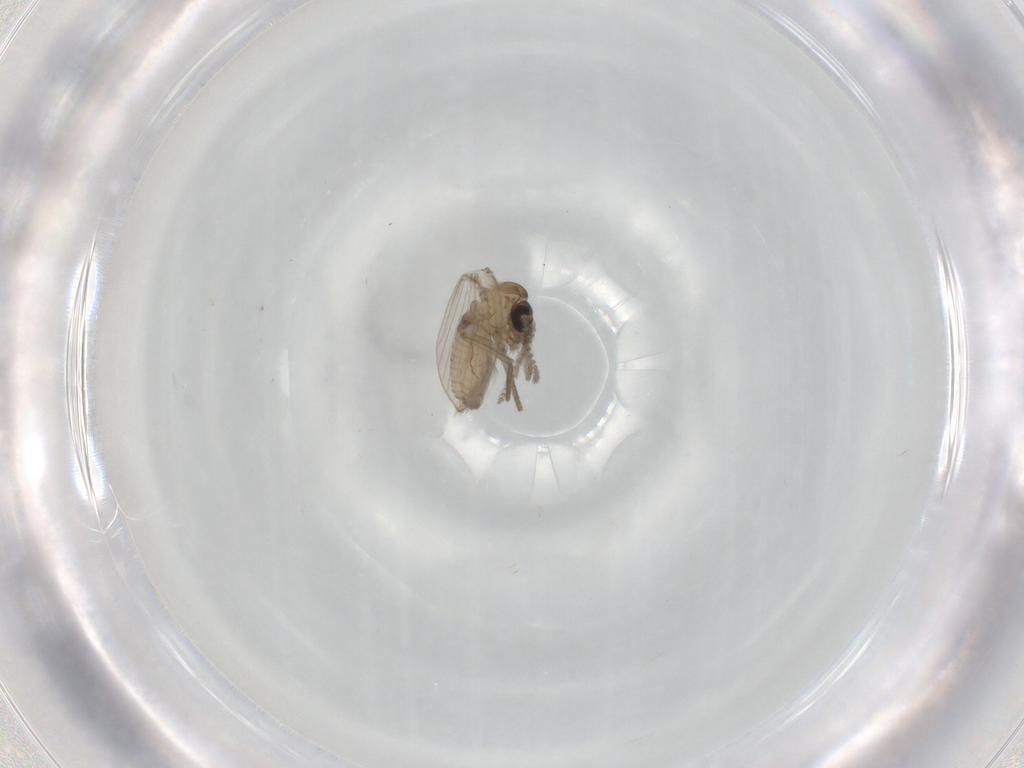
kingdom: Animalia
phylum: Arthropoda
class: Insecta
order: Diptera
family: Psychodidae
